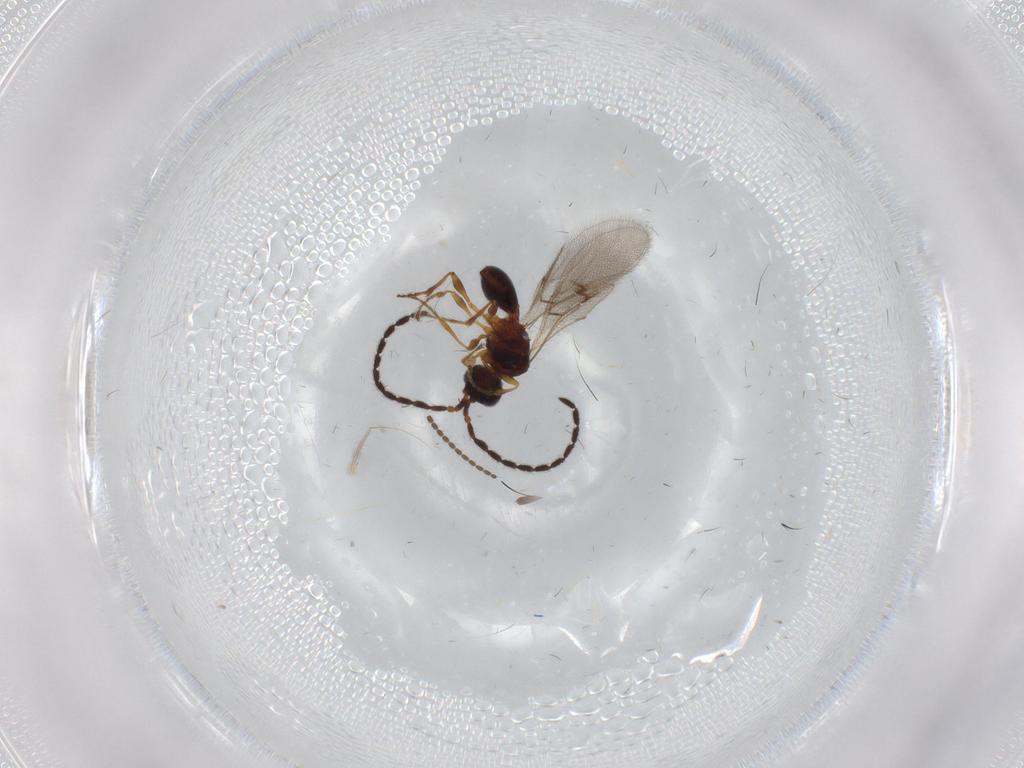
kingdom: Animalia
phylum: Arthropoda
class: Insecta
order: Hymenoptera
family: Diapriidae
